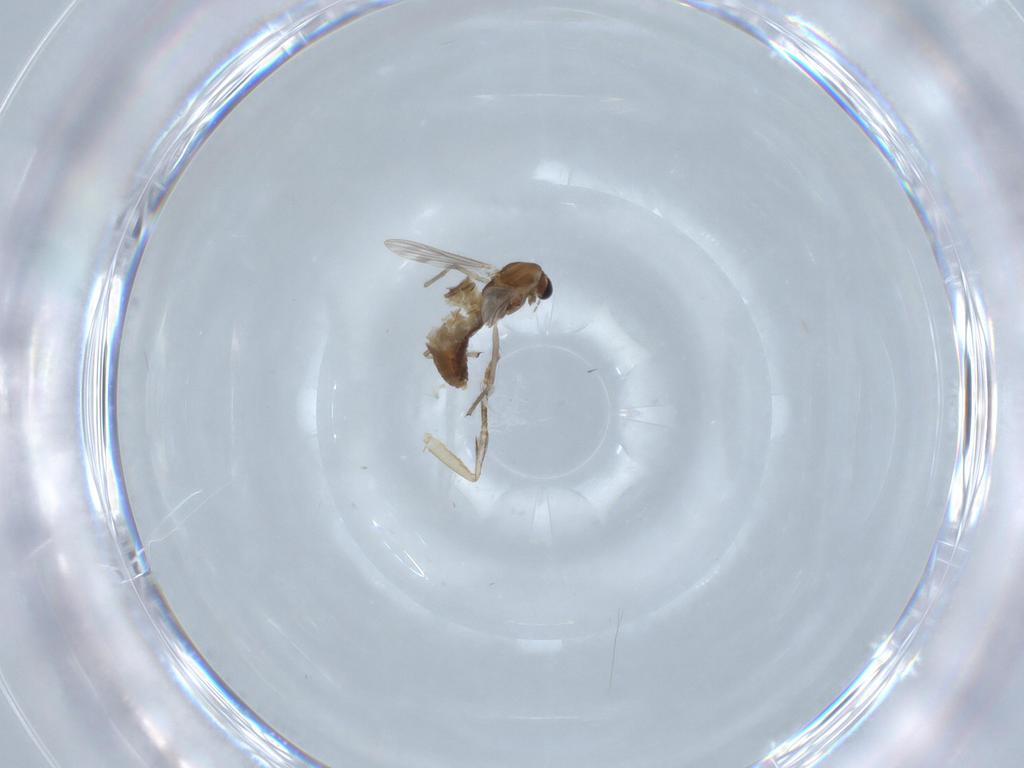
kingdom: Animalia
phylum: Arthropoda
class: Insecta
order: Diptera
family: Chironomidae
